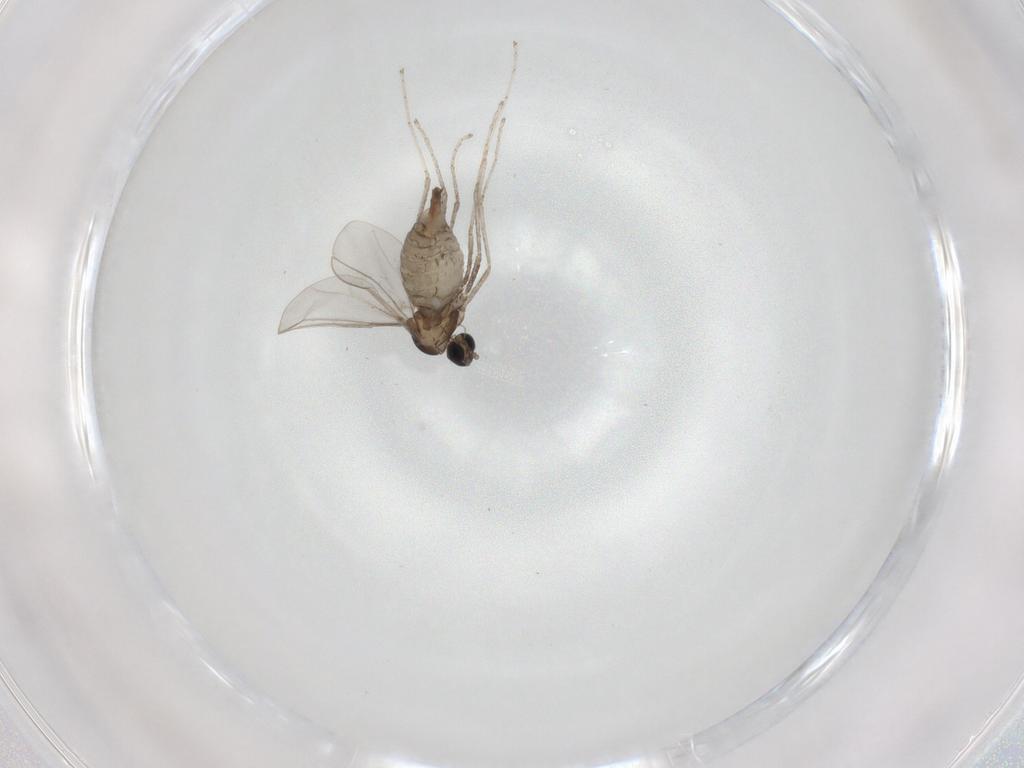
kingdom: Animalia
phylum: Arthropoda
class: Insecta
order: Diptera
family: Cecidomyiidae
